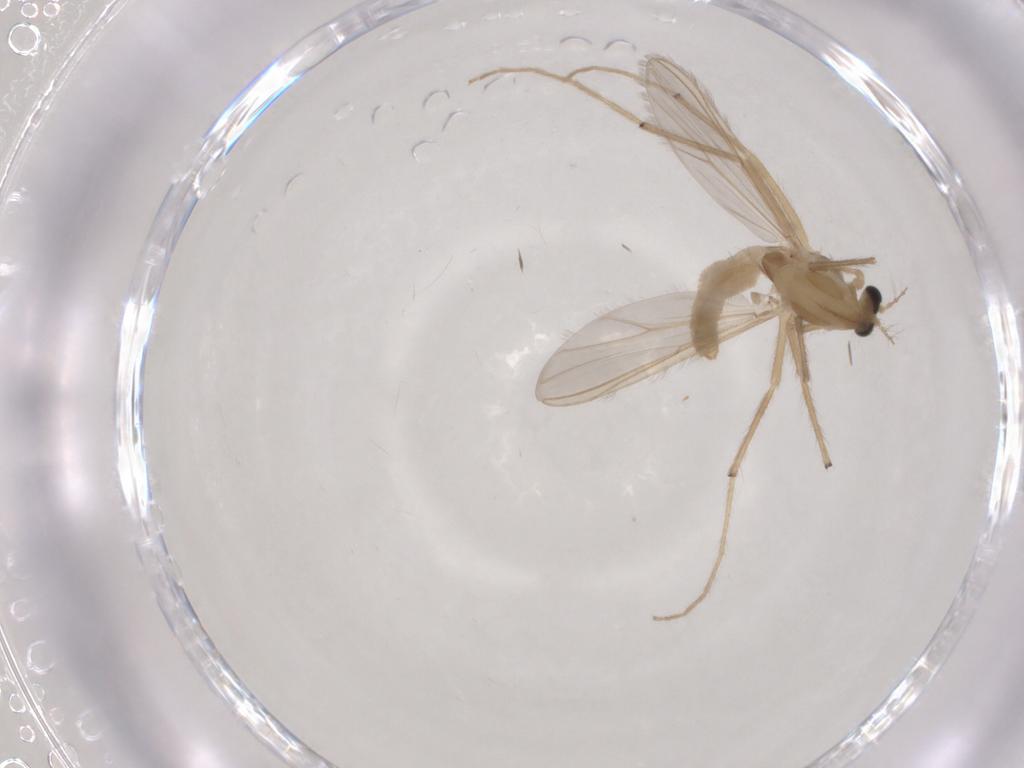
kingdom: Animalia
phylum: Arthropoda
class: Insecta
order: Diptera
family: Chironomidae
